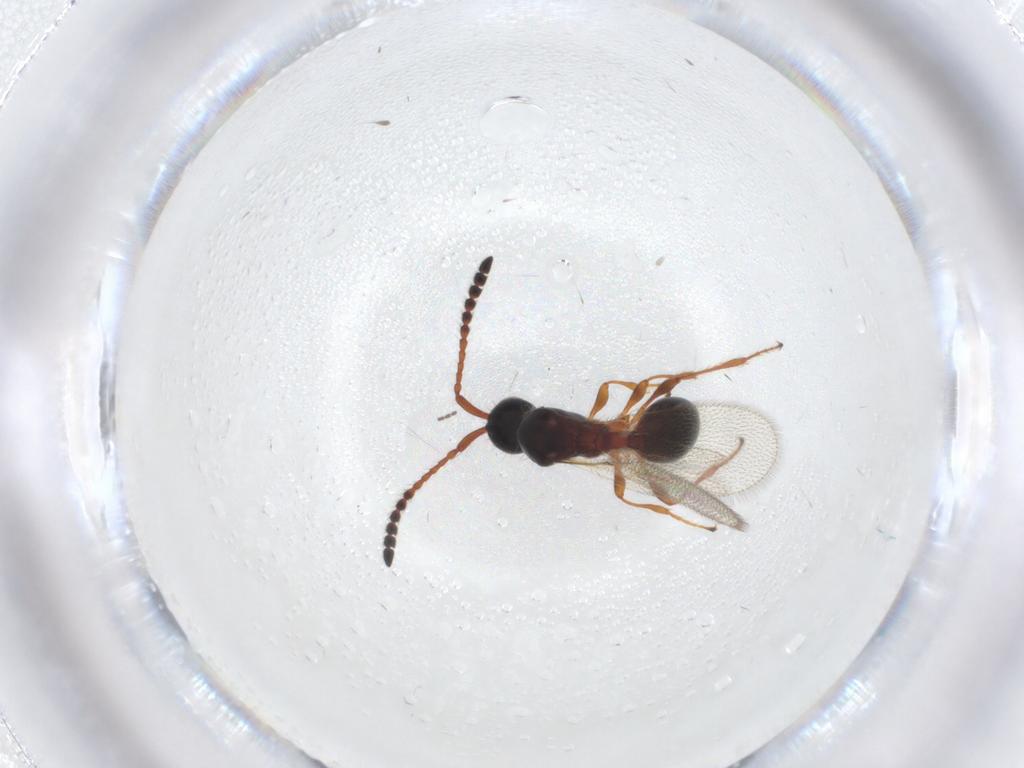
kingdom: Animalia
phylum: Arthropoda
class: Insecta
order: Hymenoptera
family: Diapriidae
